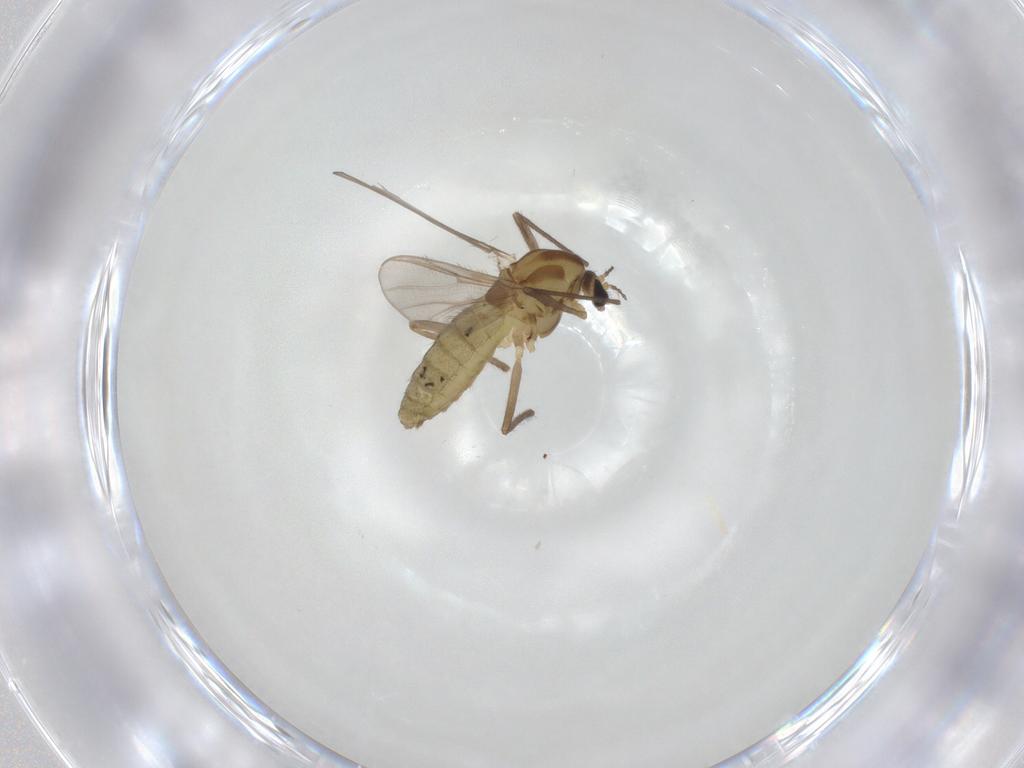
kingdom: Animalia
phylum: Arthropoda
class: Insecta
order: Diptera
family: Chironomidae
